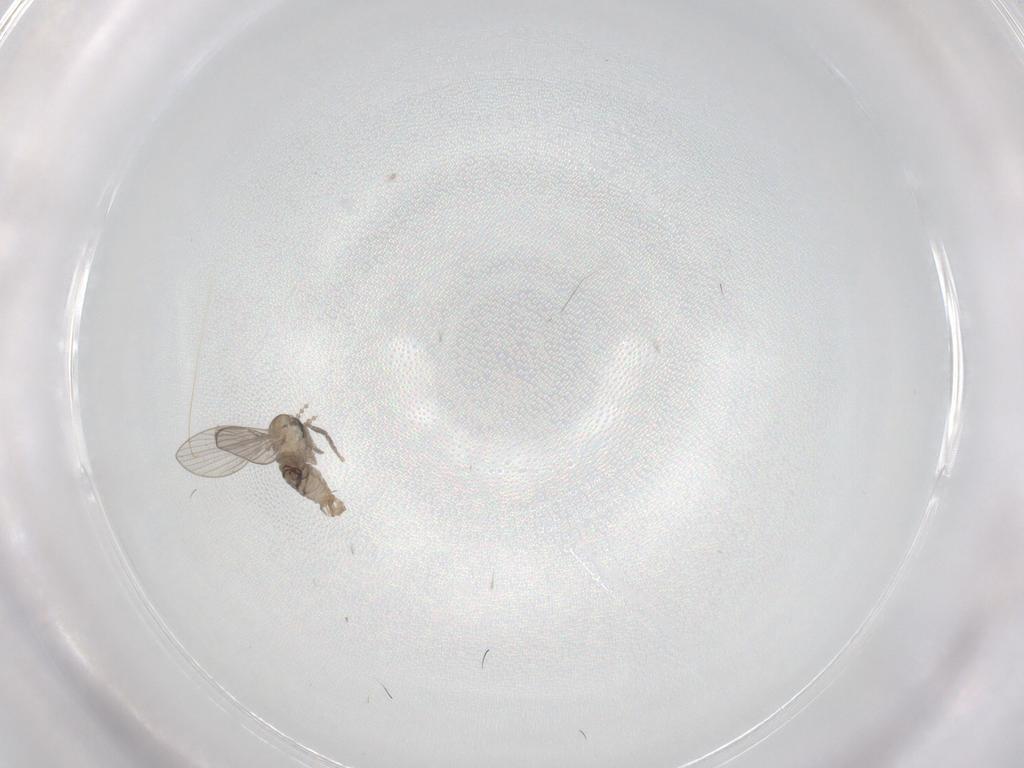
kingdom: Animalia
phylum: Arthropoda
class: Insecta
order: Diptera
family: Tabanidae
